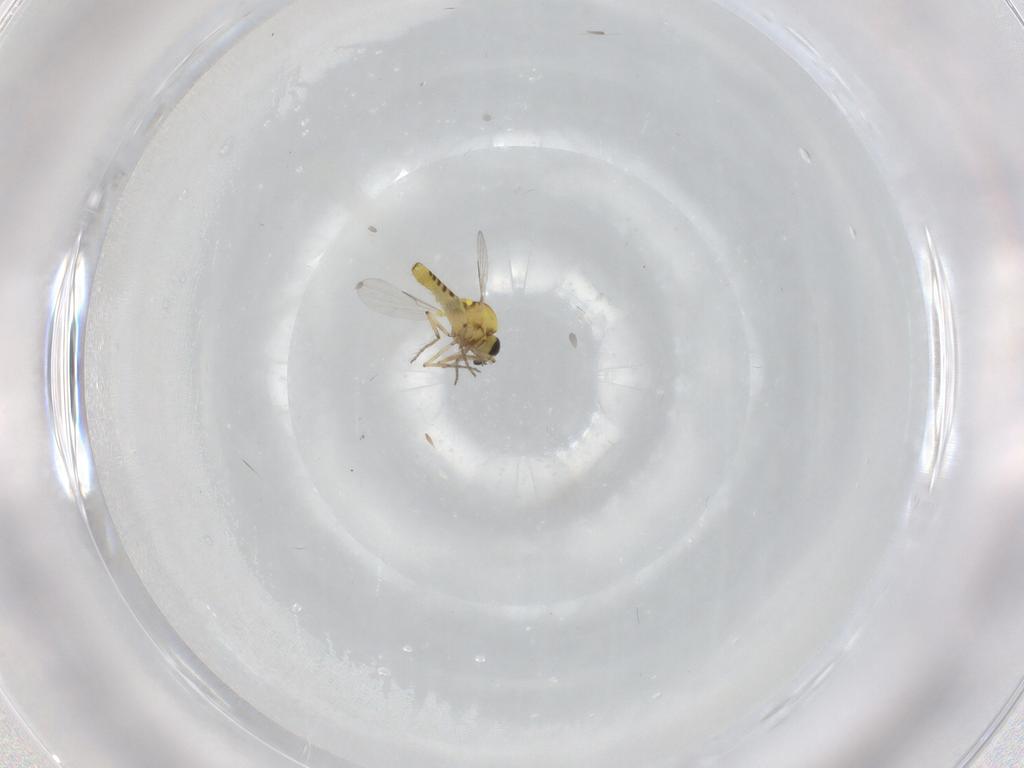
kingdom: Animalia
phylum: Arthropoda
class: Insecta
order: Diptera
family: Ceratopogonidae
